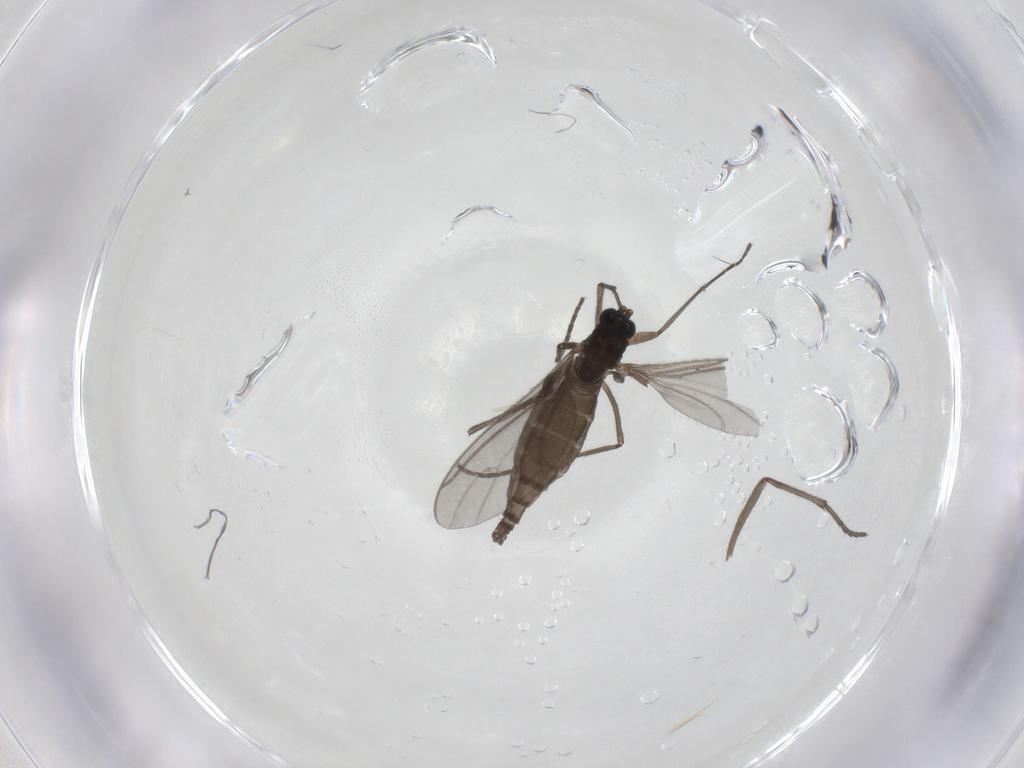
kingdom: Animalia
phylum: Arthropoda
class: Insecta
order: Diptera
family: Sciaridae
